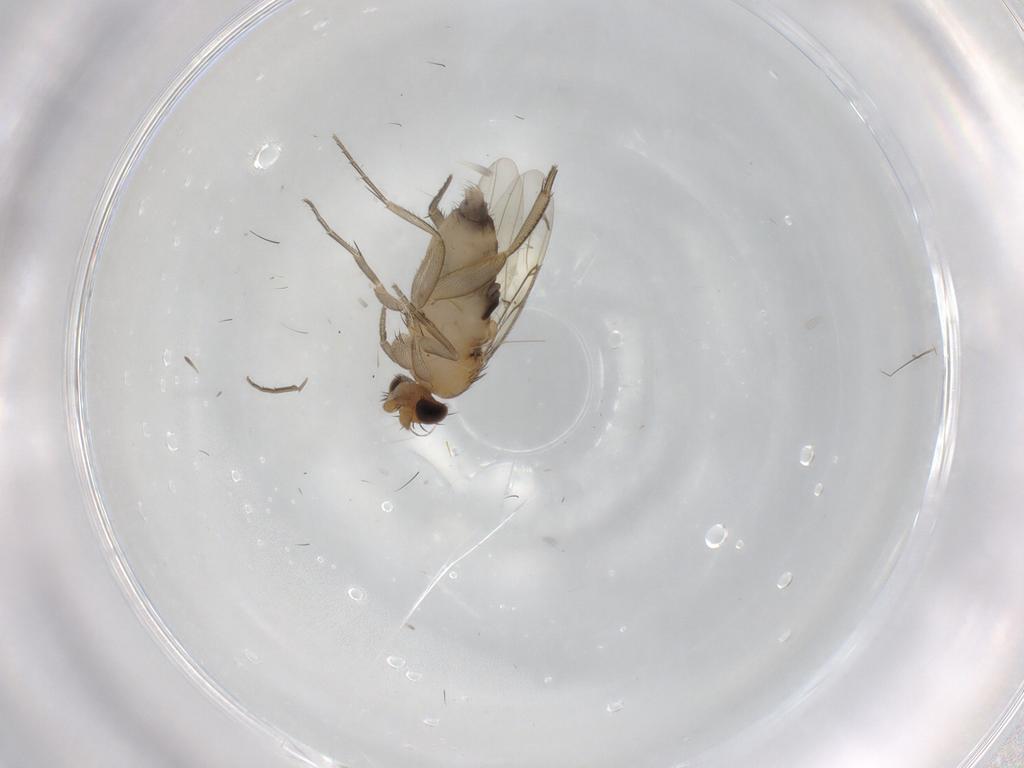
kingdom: Animalia
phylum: Arthropoda
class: Insecta
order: Diptera
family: Phoridae
